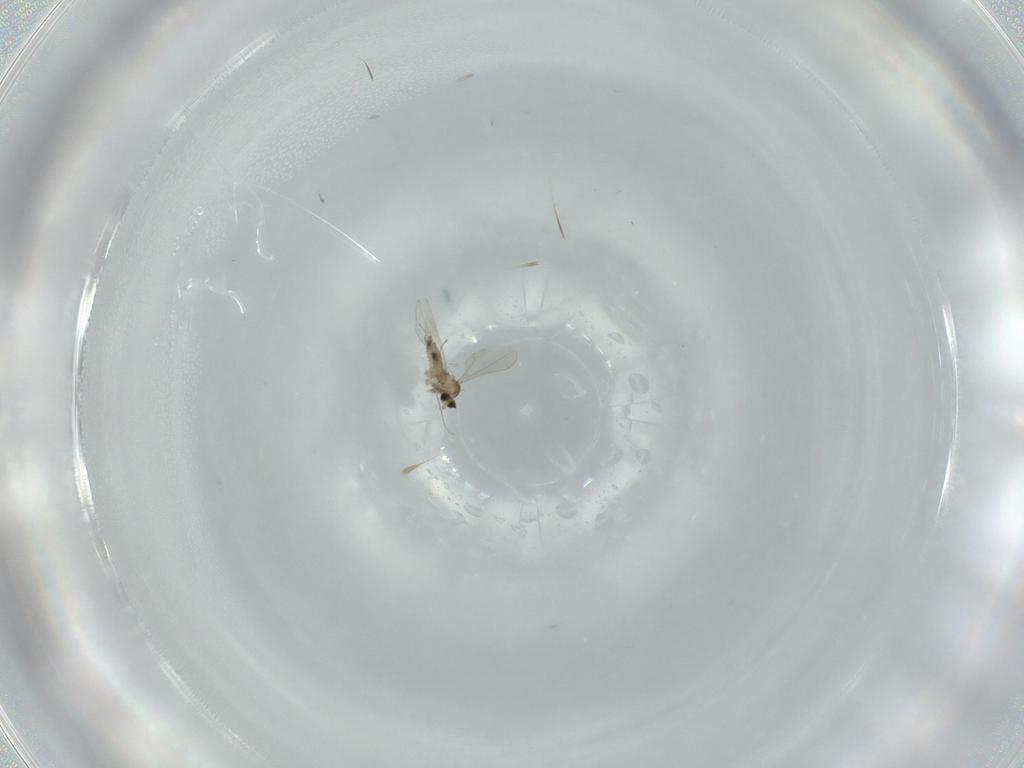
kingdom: Animalia
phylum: Arthropoda
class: Insecta
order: Diptera
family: Cecidomyiidae
